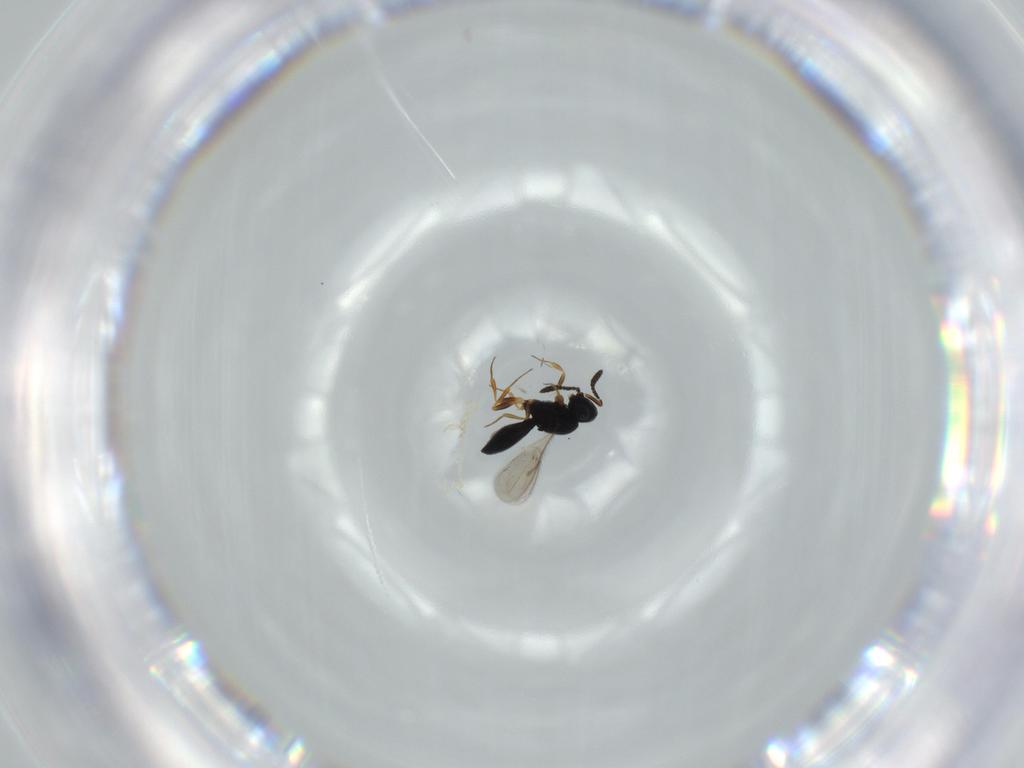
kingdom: Animalia
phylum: Arthropoda
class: Insecta
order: Hymenoptera
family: Scelionidae
